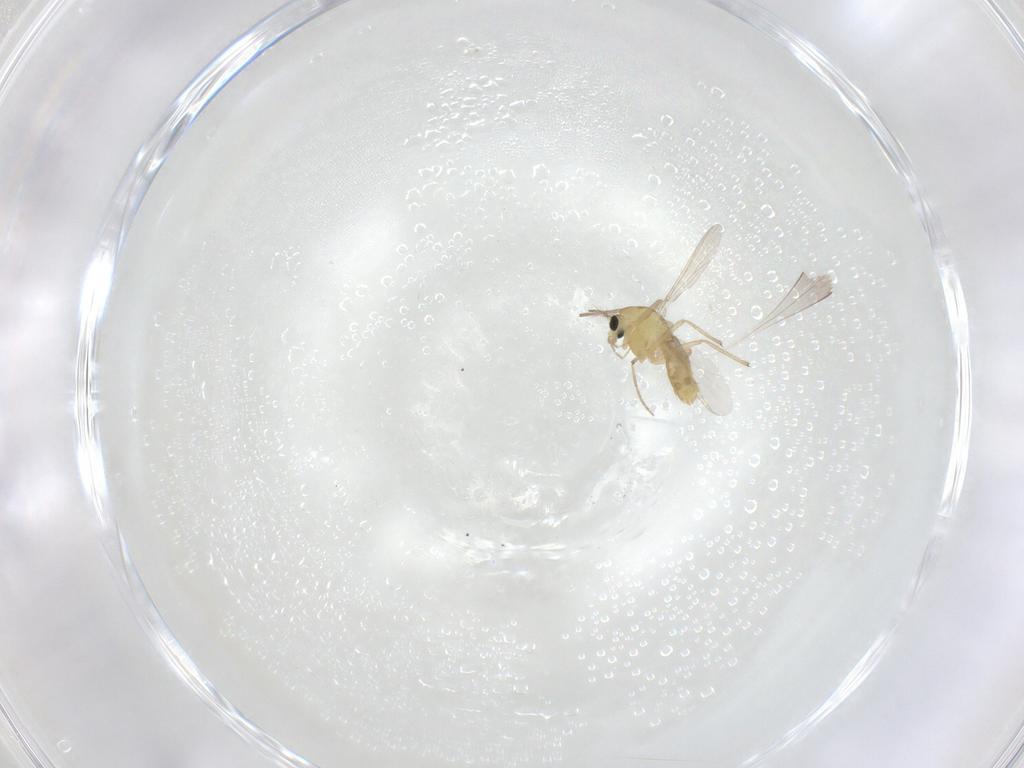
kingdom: Animalia
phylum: Arthropoda
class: Insecta
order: Diptera
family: Chironomidae
